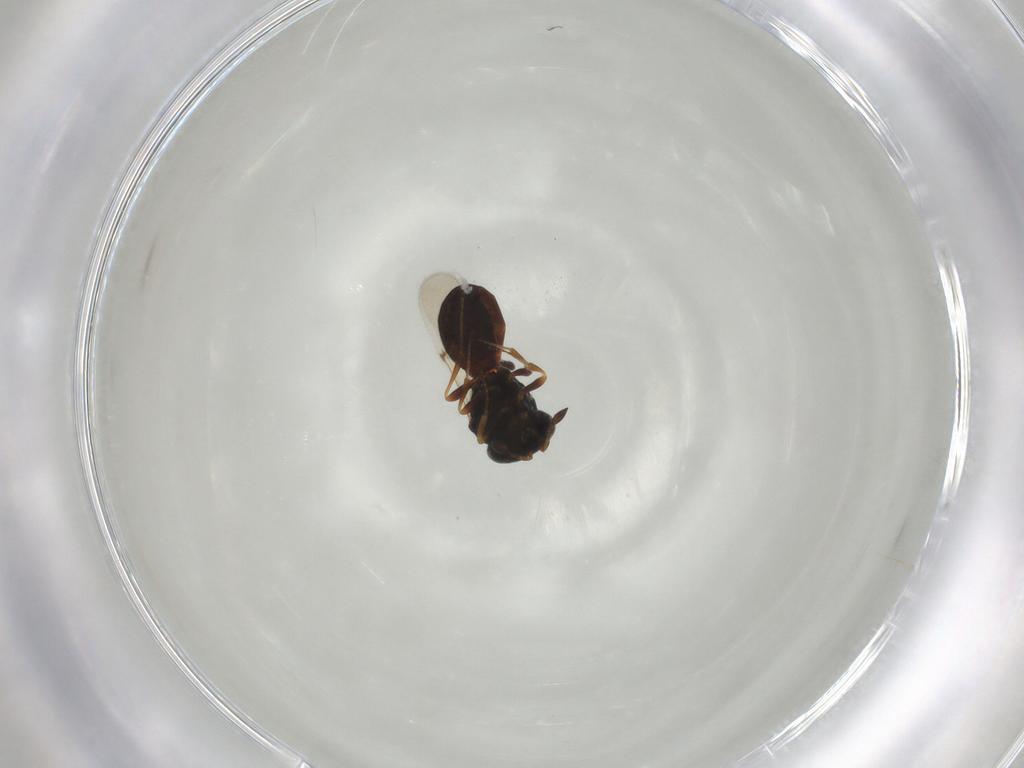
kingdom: Animalia
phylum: Arthropoda
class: Insecta
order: Hymenoptera
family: Scelionidae
